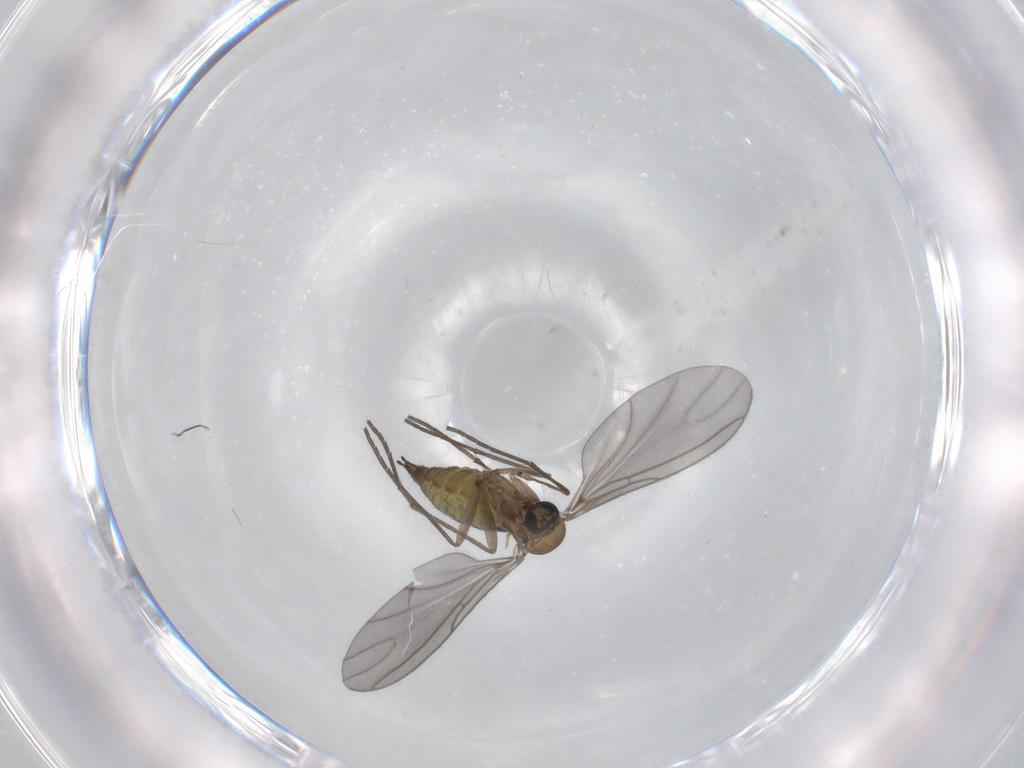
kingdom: Animalia
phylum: Arthropoda
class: Insecta
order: Diptera
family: Sciaridae
